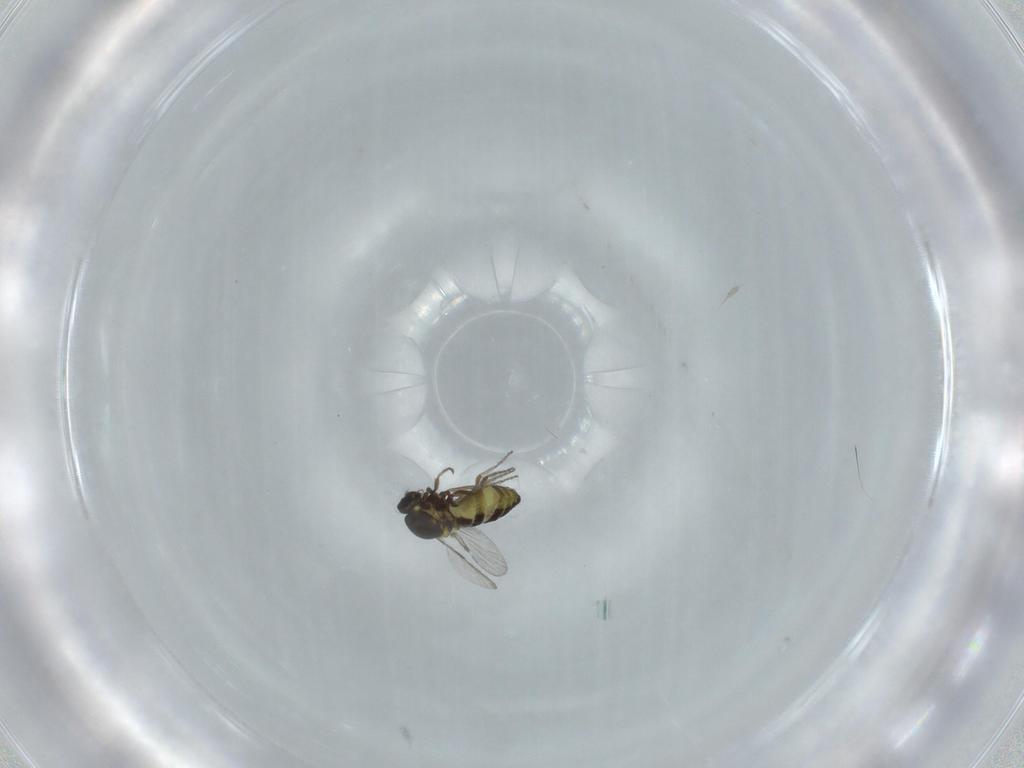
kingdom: Animalia
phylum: Arthropoda
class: Insecta
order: Diptera
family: Ceratopogonidae
